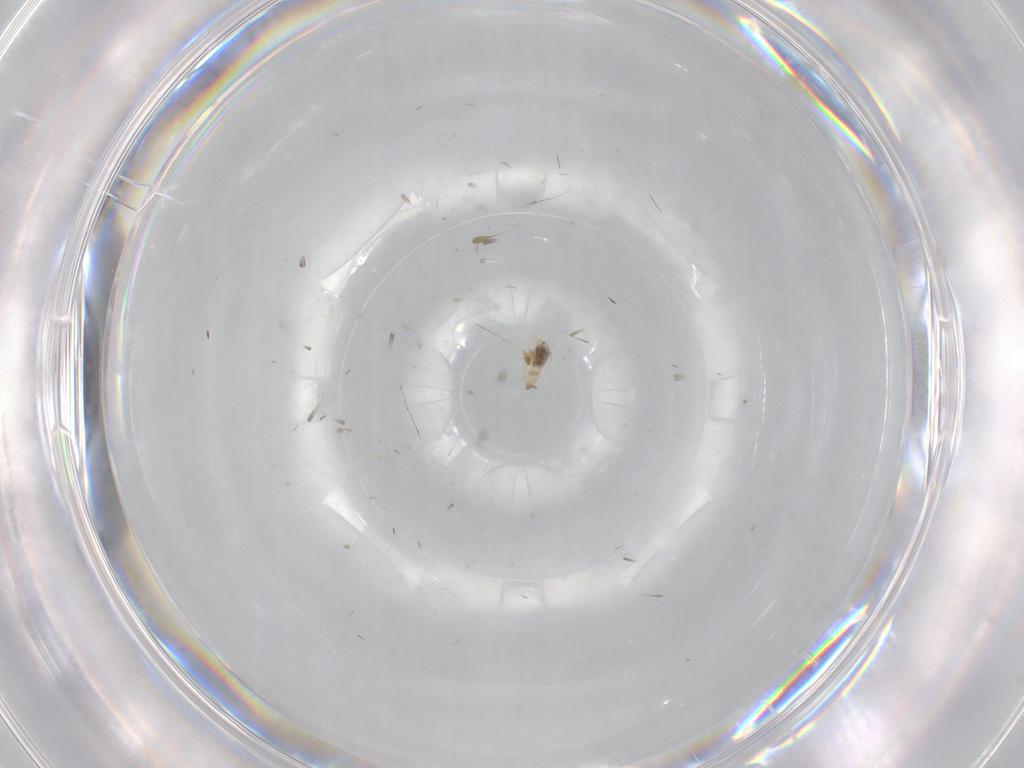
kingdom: Animalia
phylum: Arthropoda
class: Insecta
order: Diptera
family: Cecidomyiidae
